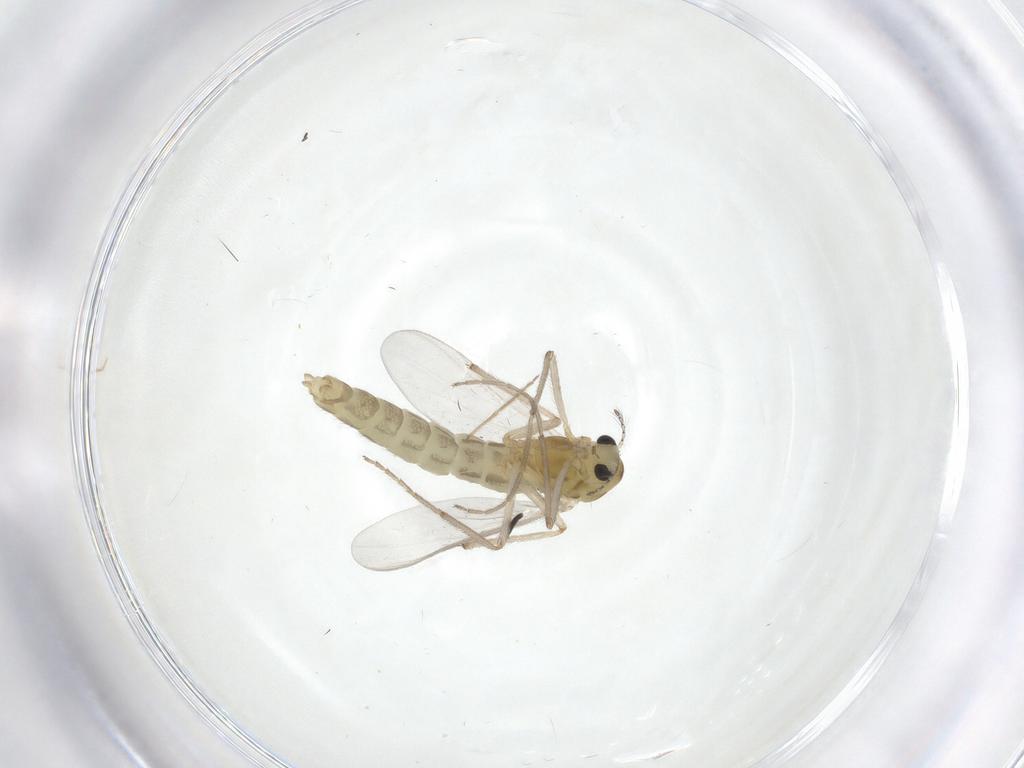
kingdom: Animalia
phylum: Arthropoda
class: Insecta
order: Diptera
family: Chironomidae
